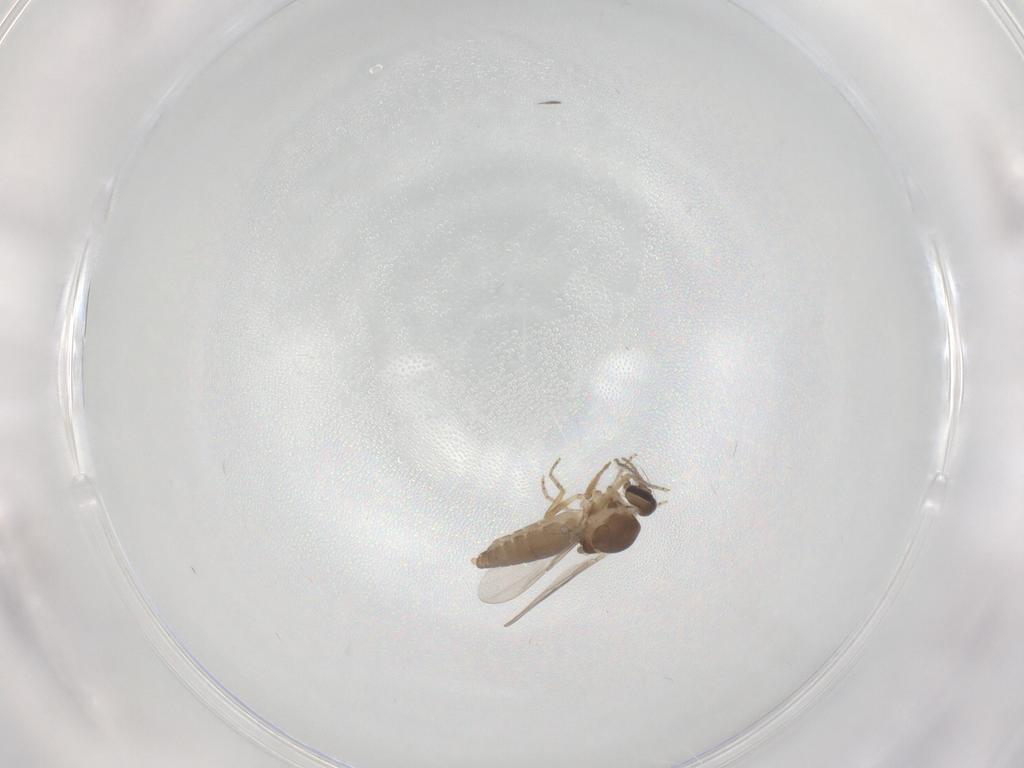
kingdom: Animalia
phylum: Arthropoda
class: Insecta
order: Diptera
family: Ceratopogonidae
